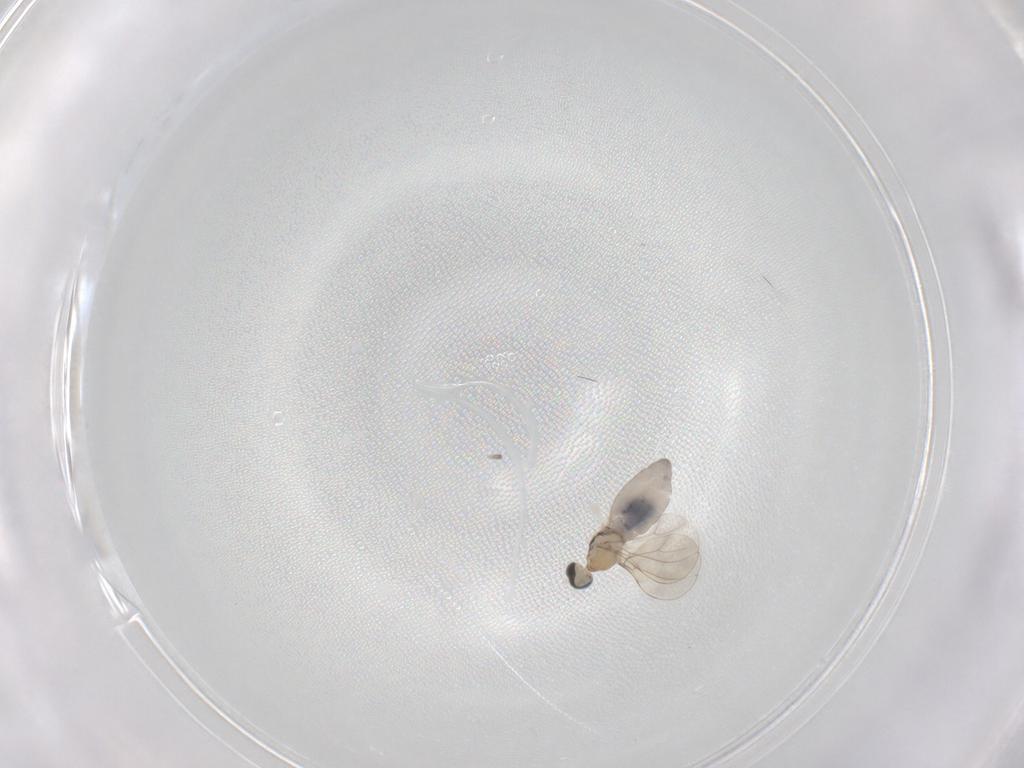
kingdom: Animalia
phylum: Arthropoda
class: Insecta
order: Diptera
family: Cecidomyiidae
